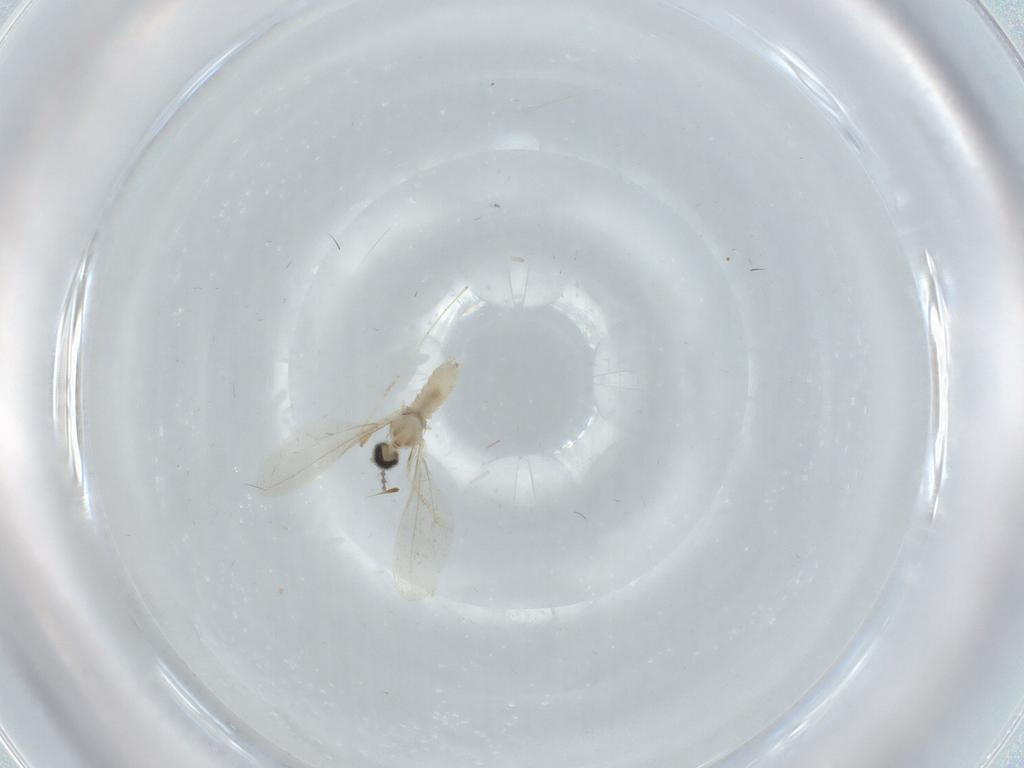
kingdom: Animalia
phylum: Arthropoda
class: Insecta
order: Diptera
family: Cecidomyiidae
